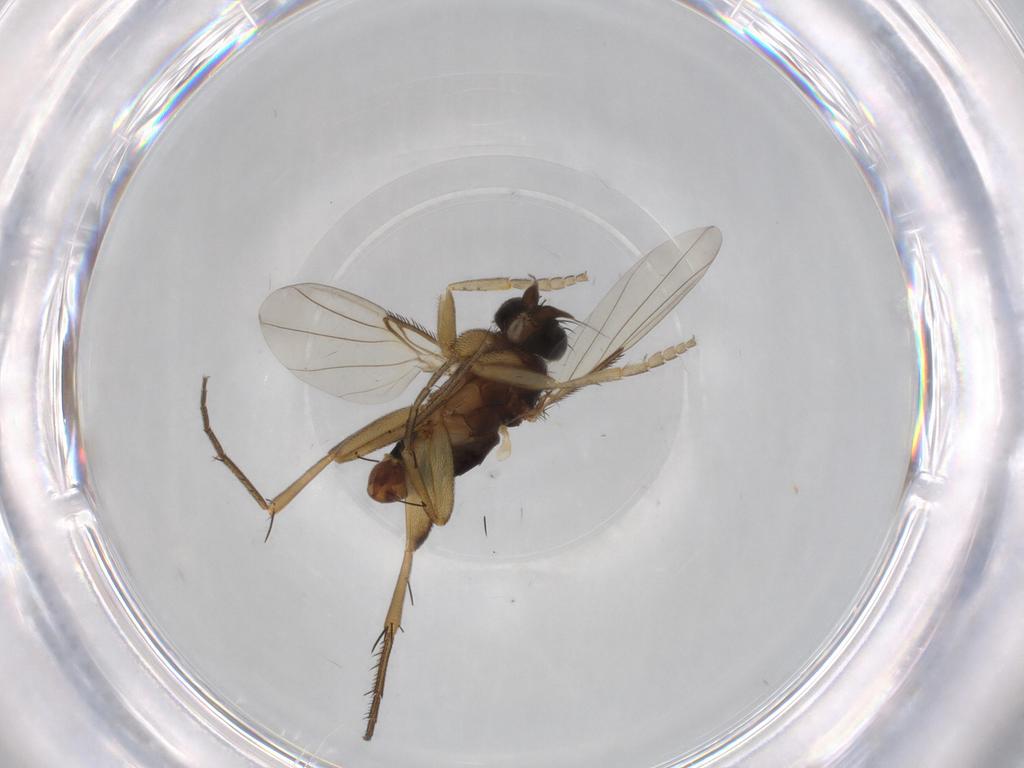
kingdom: Animalia
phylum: Arthropoda
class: Insecta
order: Diptera
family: Phoridae
